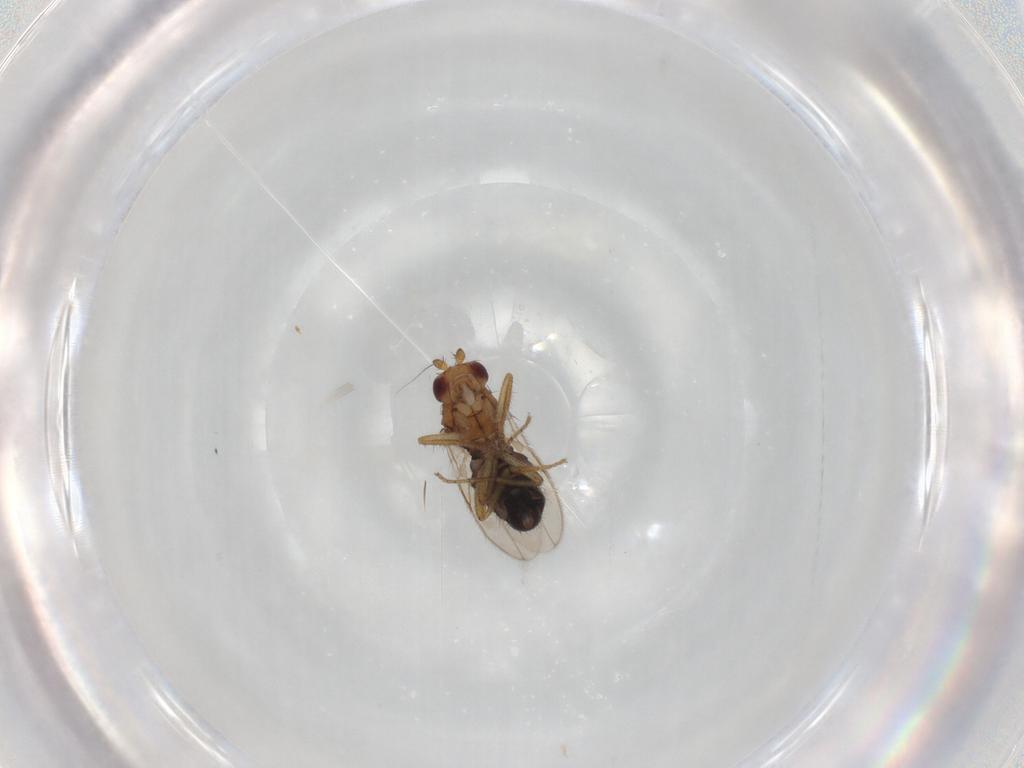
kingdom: Animalia
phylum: Arthropoda
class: Insecta
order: Diptera
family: Sphaeroceridae
